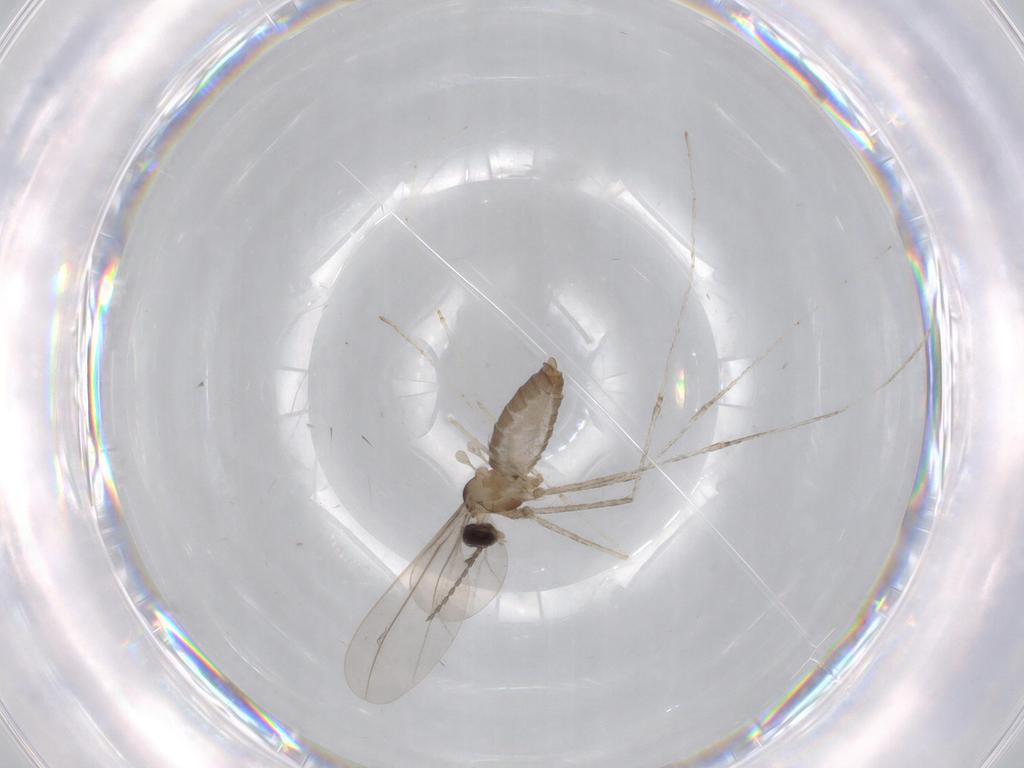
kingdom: Animalia
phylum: Arthropoda
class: Insecta
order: Diptera
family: Cecidomyiidae
